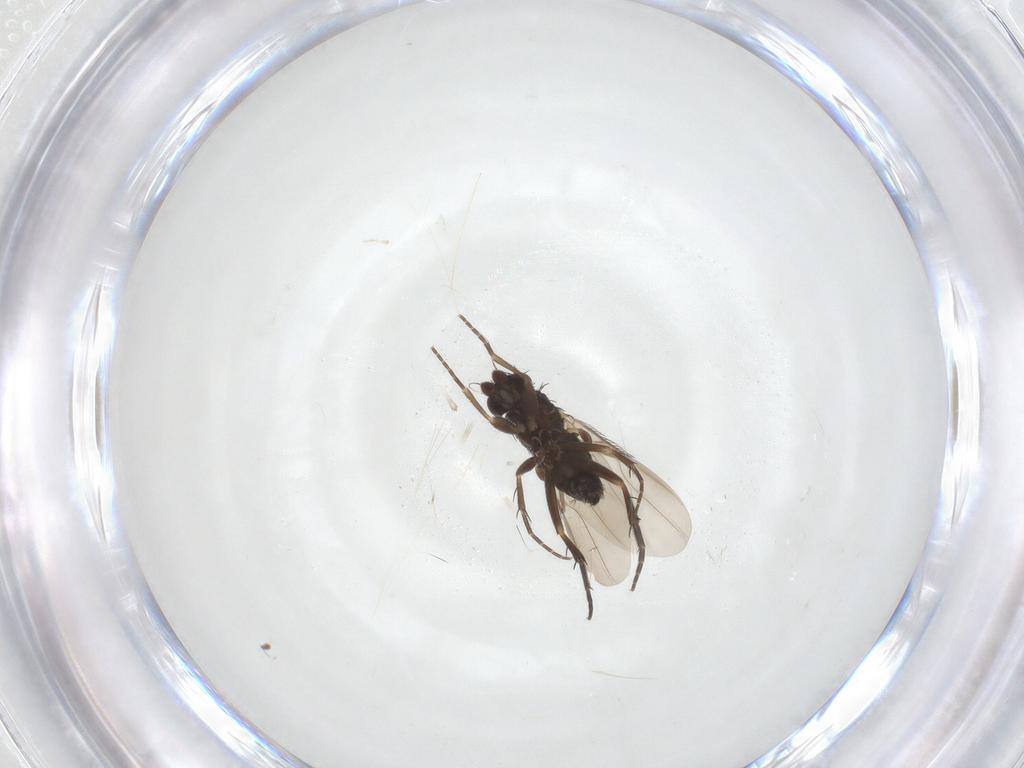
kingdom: Animalia
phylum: Arthropoda
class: Insecta
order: Diptera
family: Phoridae
